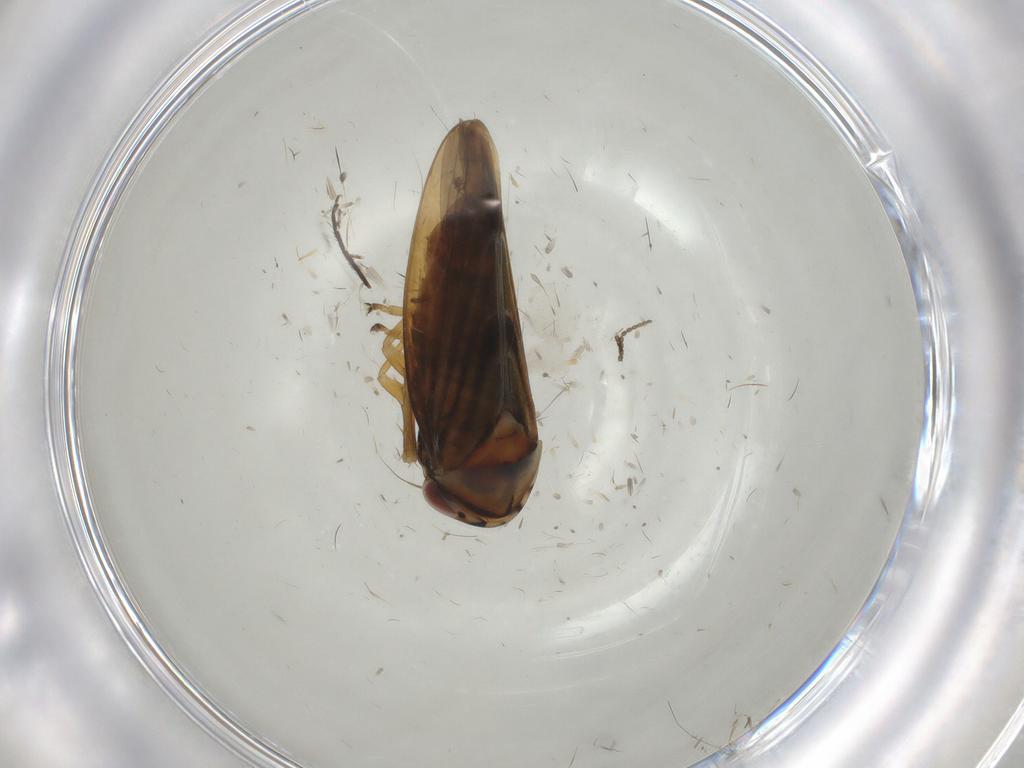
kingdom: Animalia
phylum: Arthropoda
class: Insecta
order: Hemiptera
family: Cicadellidae
